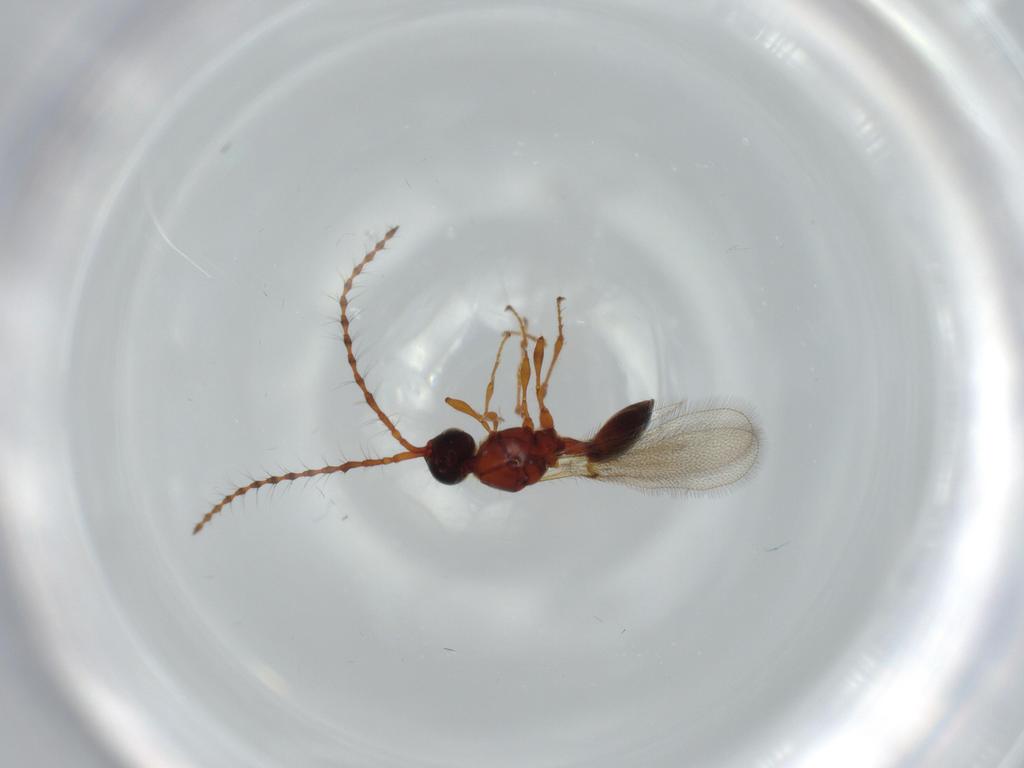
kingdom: Animalia
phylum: Arthropoda
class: Insecta
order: Hymenoptera
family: Diapriidae
